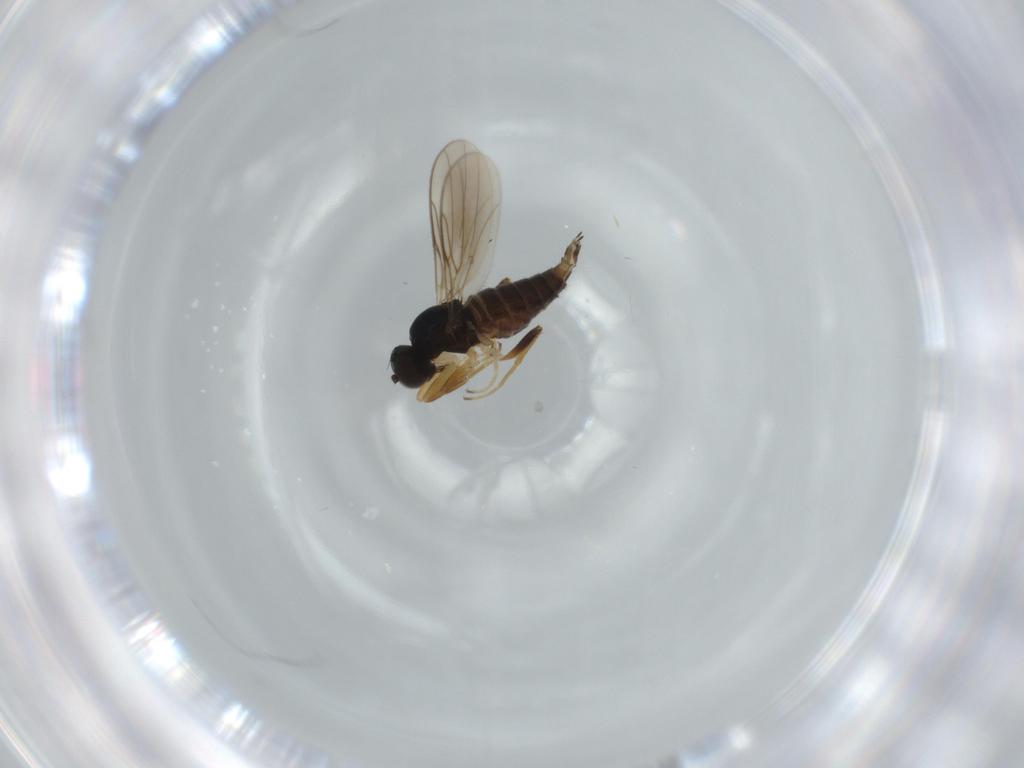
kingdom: Animalia
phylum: Arthropoda
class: Insecta
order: Diptera
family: Hybotidae
